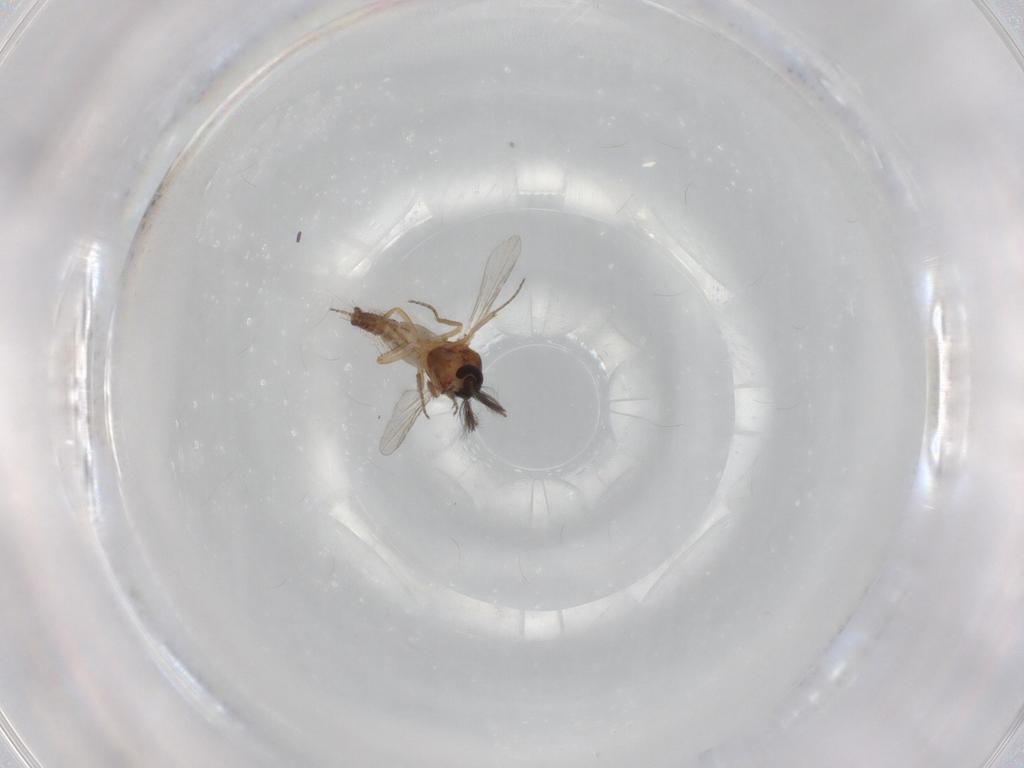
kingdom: Animalia
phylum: Arthropoda
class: Insecta
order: Diptera
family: Ceratopogonidae
